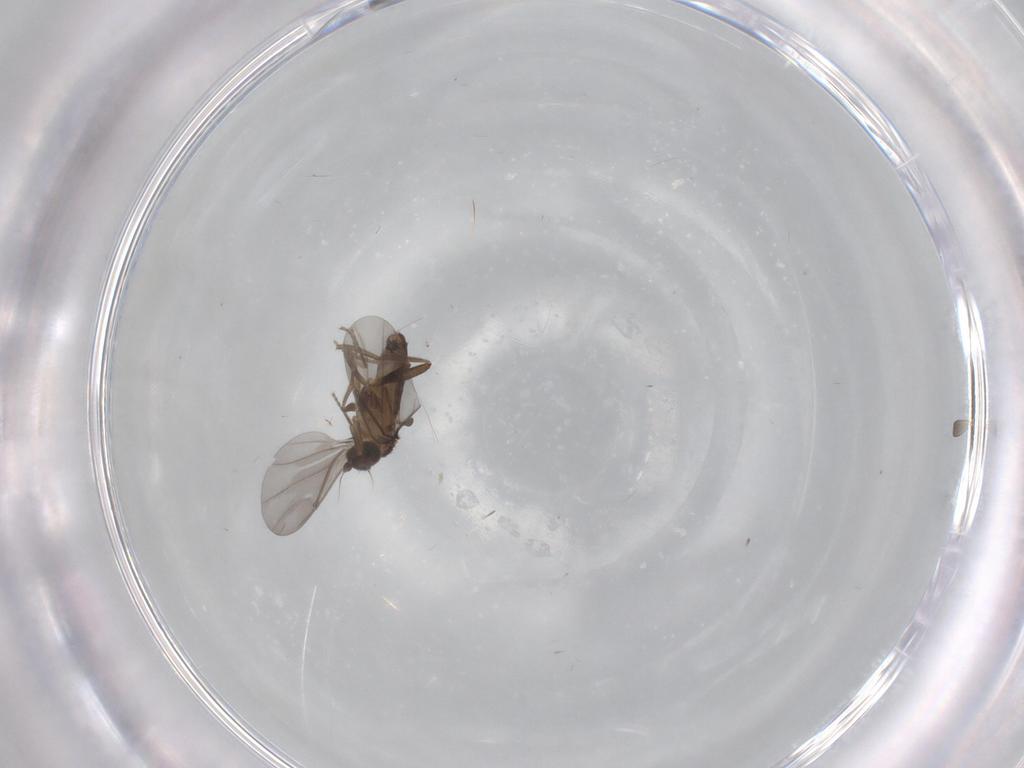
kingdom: Animalia
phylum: Arthropoda
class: Insecta
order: Diptera
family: Phoridae
